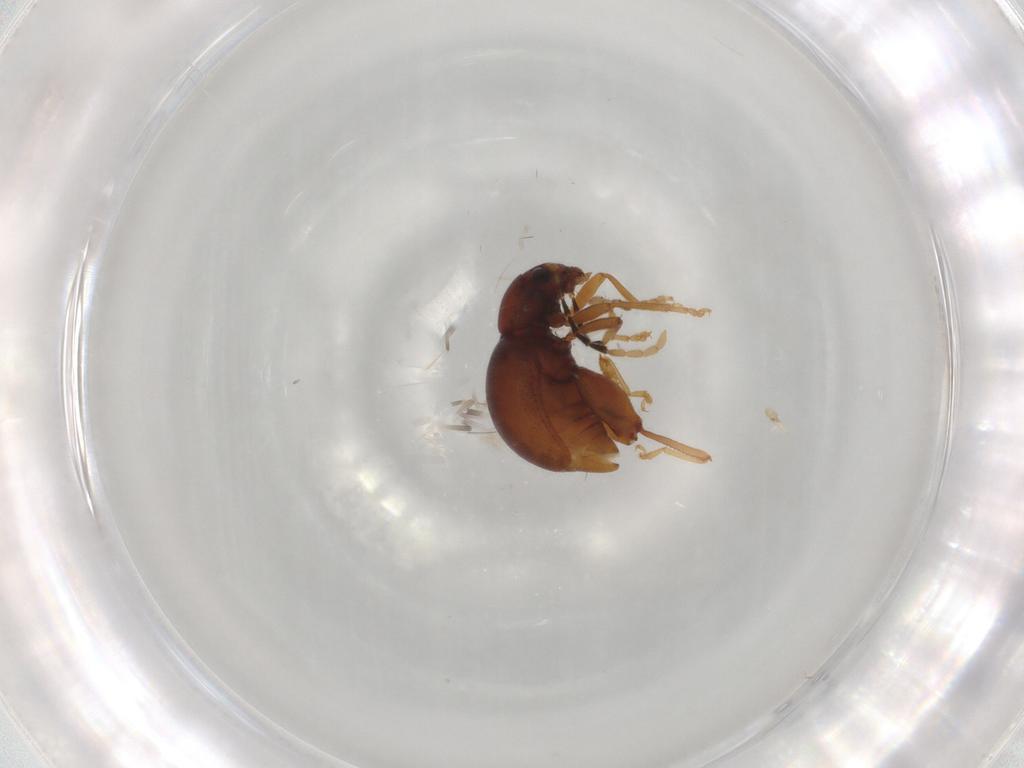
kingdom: Animalia
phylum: Arthropoda
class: Insecta
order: Coleoptera
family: Chrysomelidae
